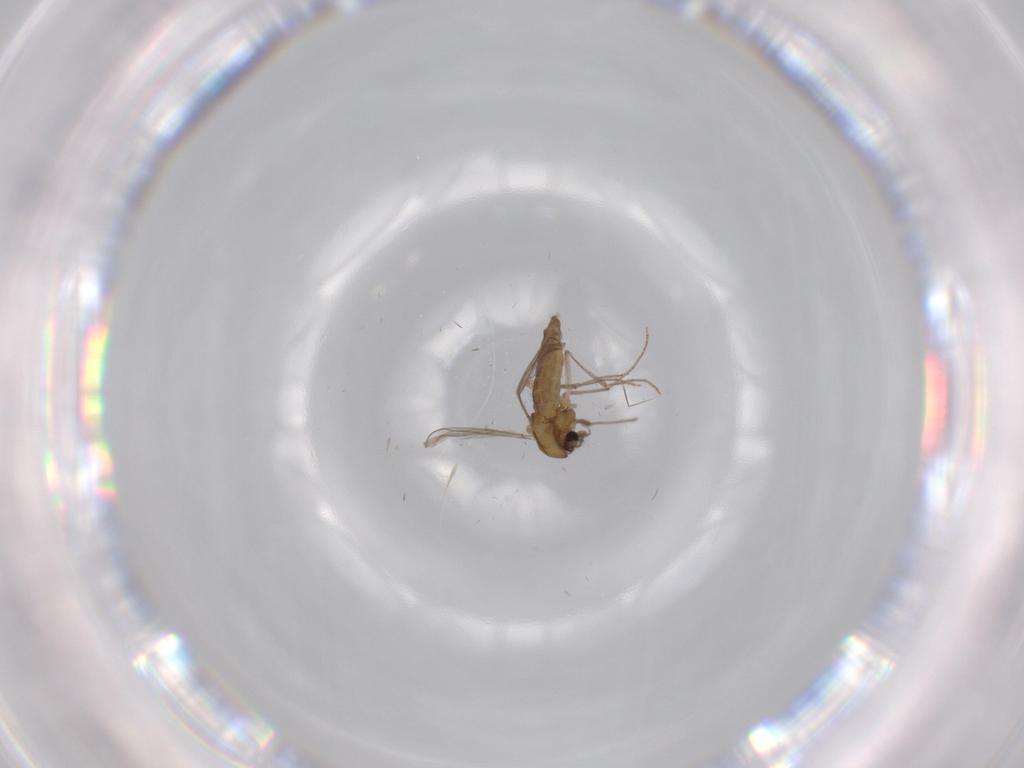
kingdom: Animalia
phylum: Arthropoda
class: Insecta
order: Diptera
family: Chironomidae
